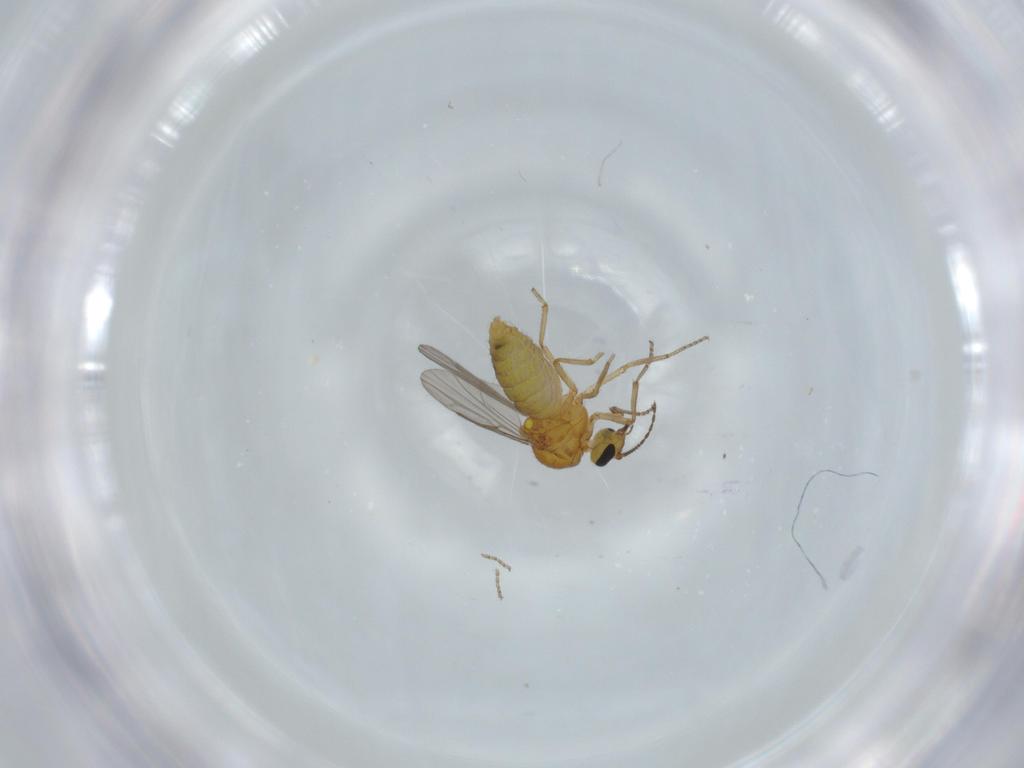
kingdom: Animalia
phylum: Arthropoda
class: Insecta
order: Diptera
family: Ceratopogonidae
